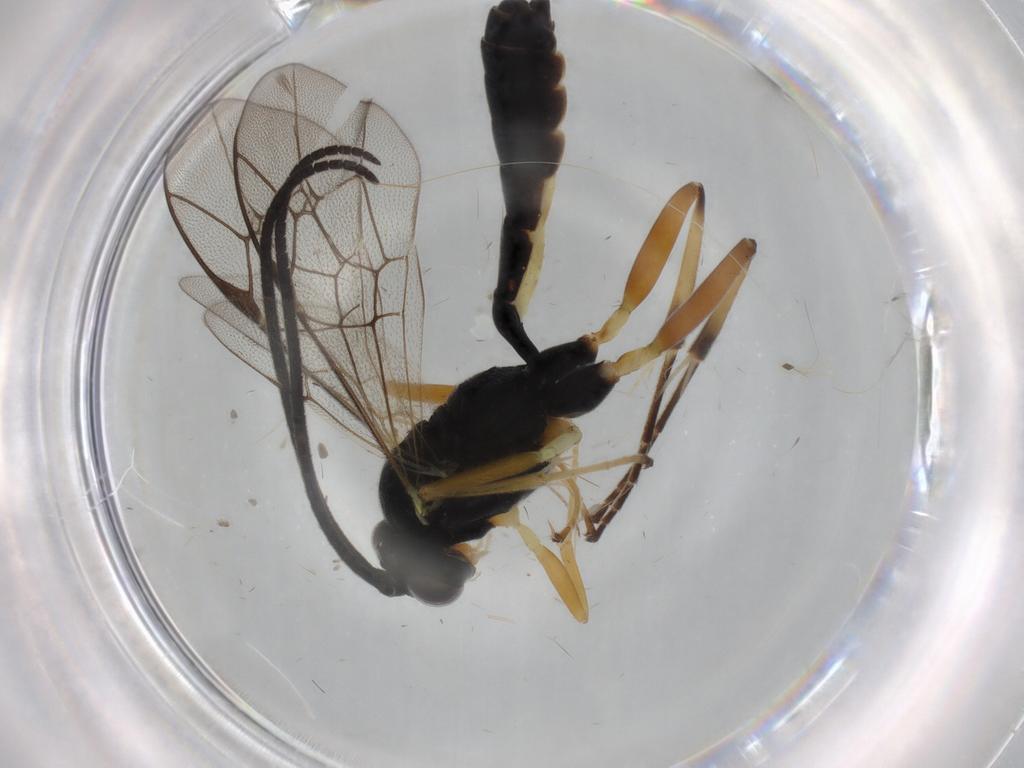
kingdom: Animalia
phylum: Arthropoda
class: Insecta
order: Hymenoptera
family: Ichneumonidae
